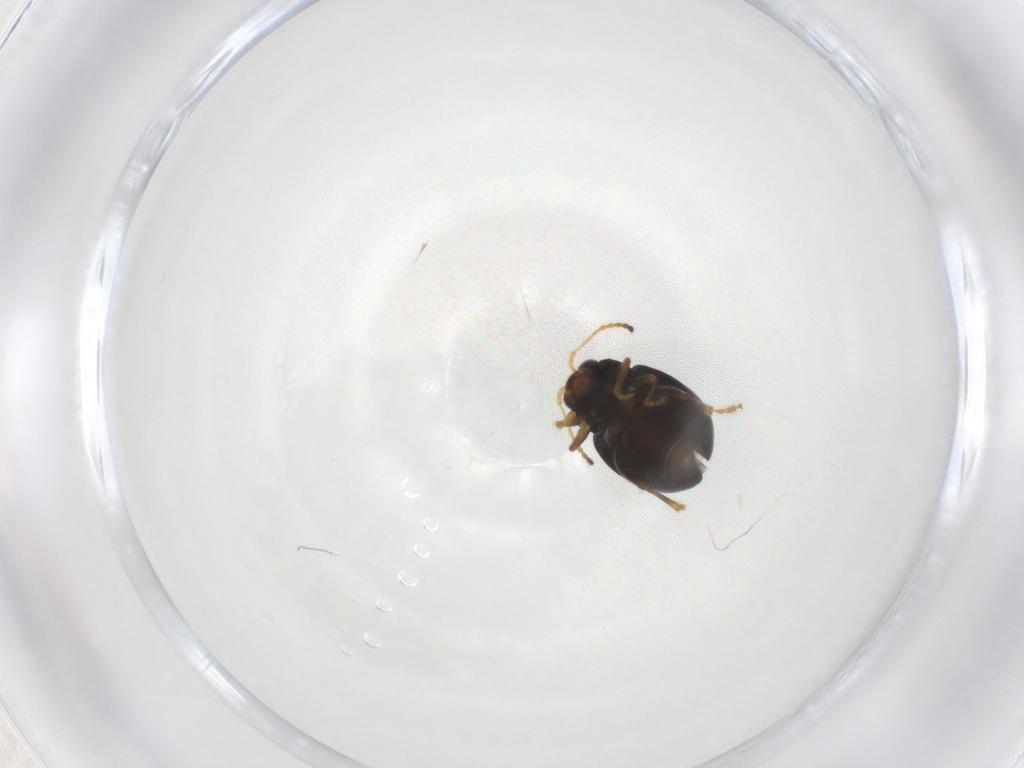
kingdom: Animalia
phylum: Arthropoda
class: Insecta
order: Coleoptera
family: Chrysomelidae
